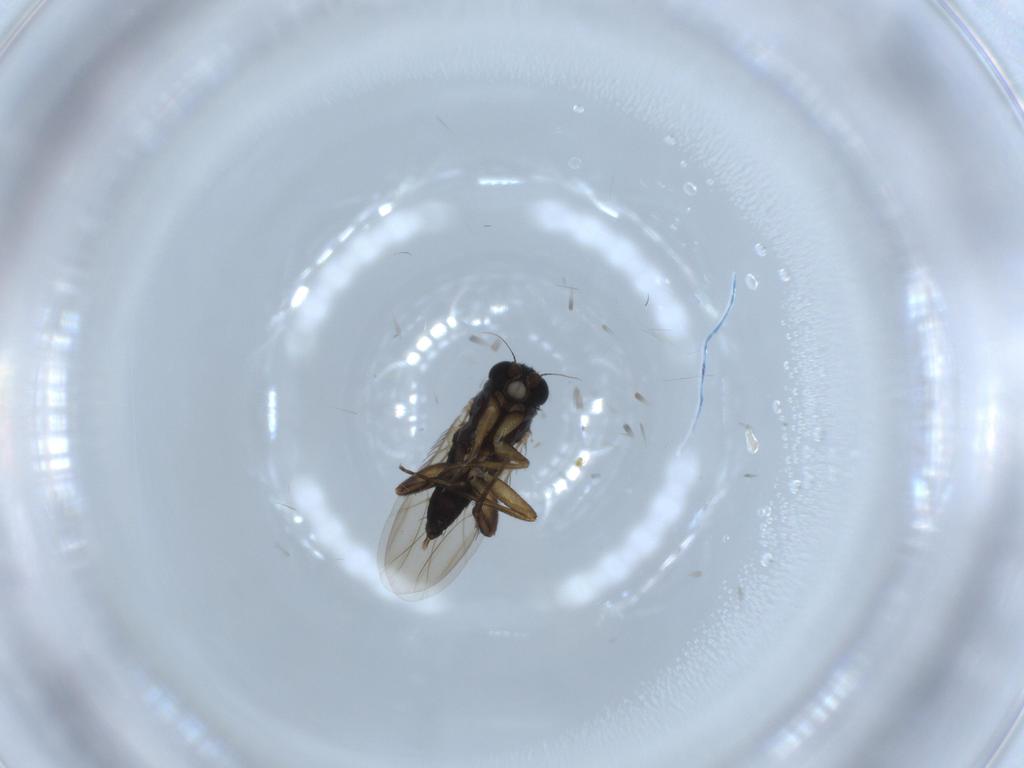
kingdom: Animalia
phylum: Arthropoda
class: Insecta
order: Diptera
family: Phoridae
